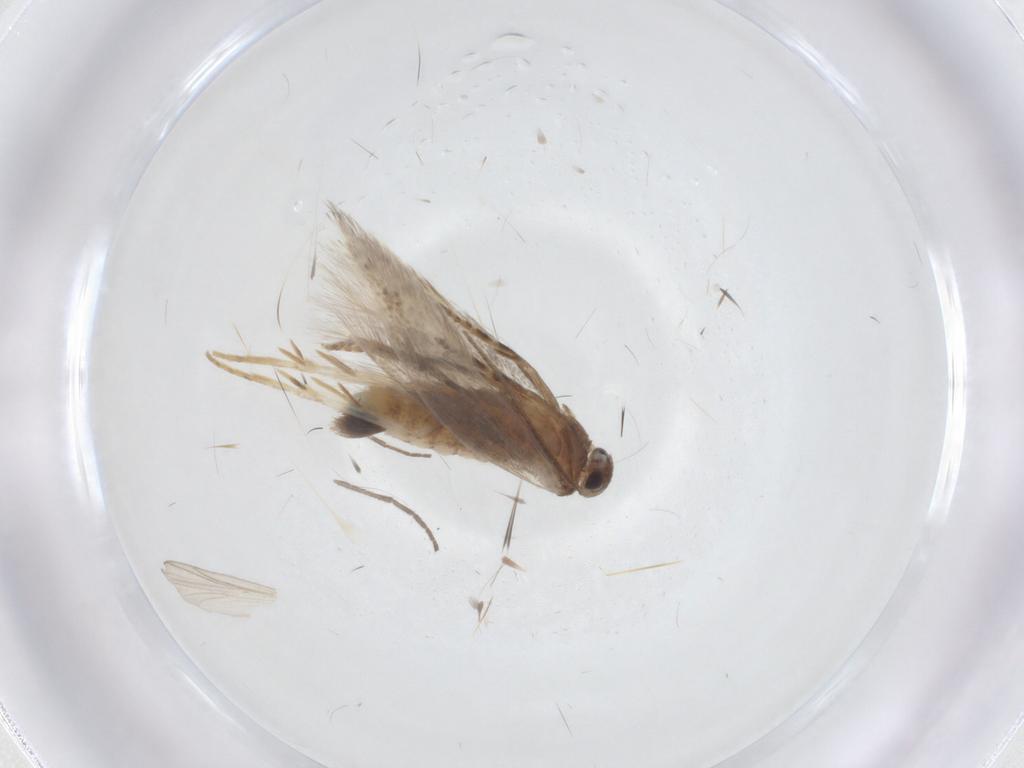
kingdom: Animalia
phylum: Arthropoda
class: Insecta
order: Lepidoptera
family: Elachistidae
